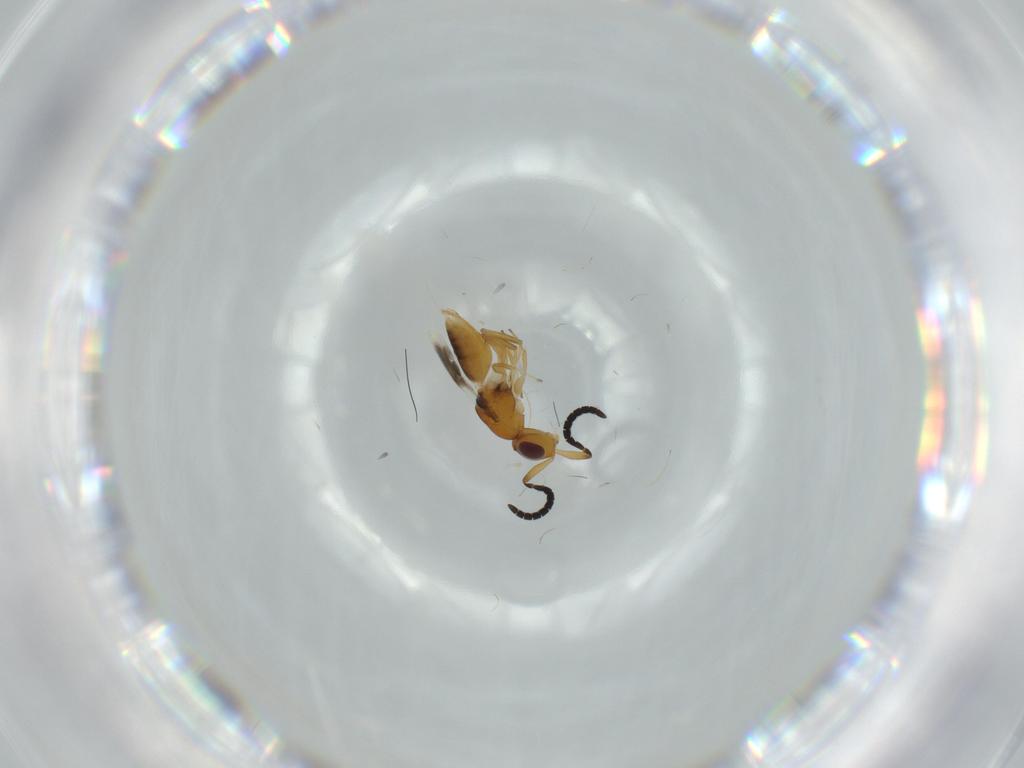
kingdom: Animalia
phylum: Arthropoda
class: Insecta
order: Hymenoptera
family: Megaspilidae
